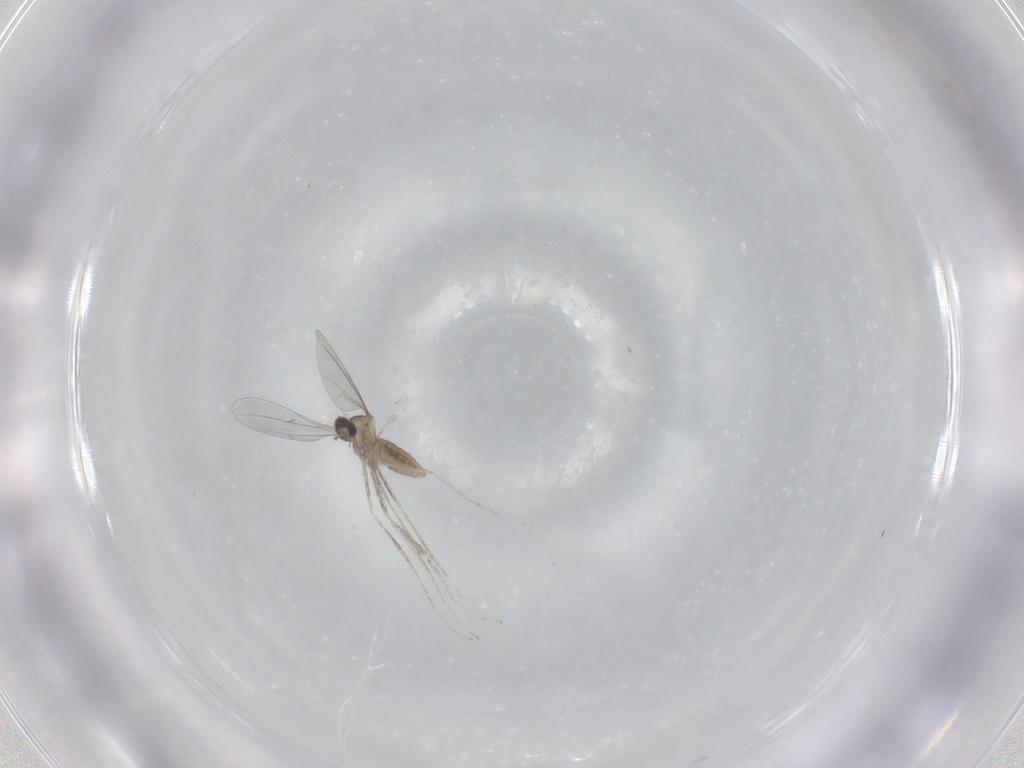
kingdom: Animalia
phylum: Arthropoda
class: Insecta
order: Diptera
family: Cecidomyiidae
